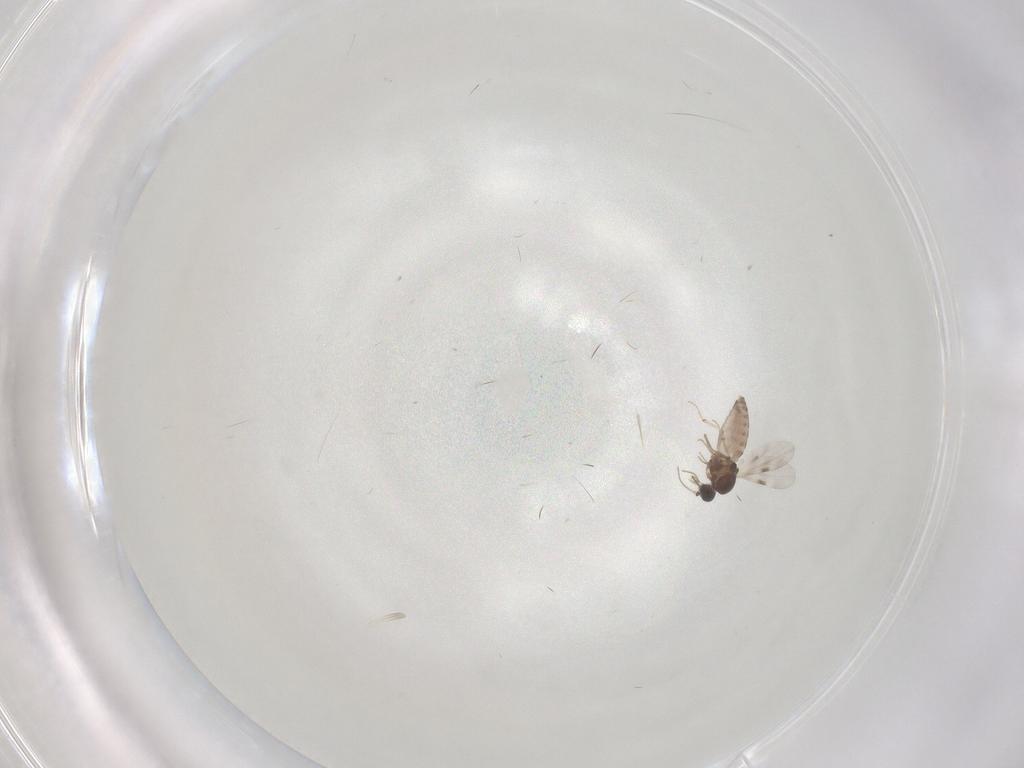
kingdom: Animalia
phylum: Arthropoda
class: Insecta
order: Diptera
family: Chironomidae
